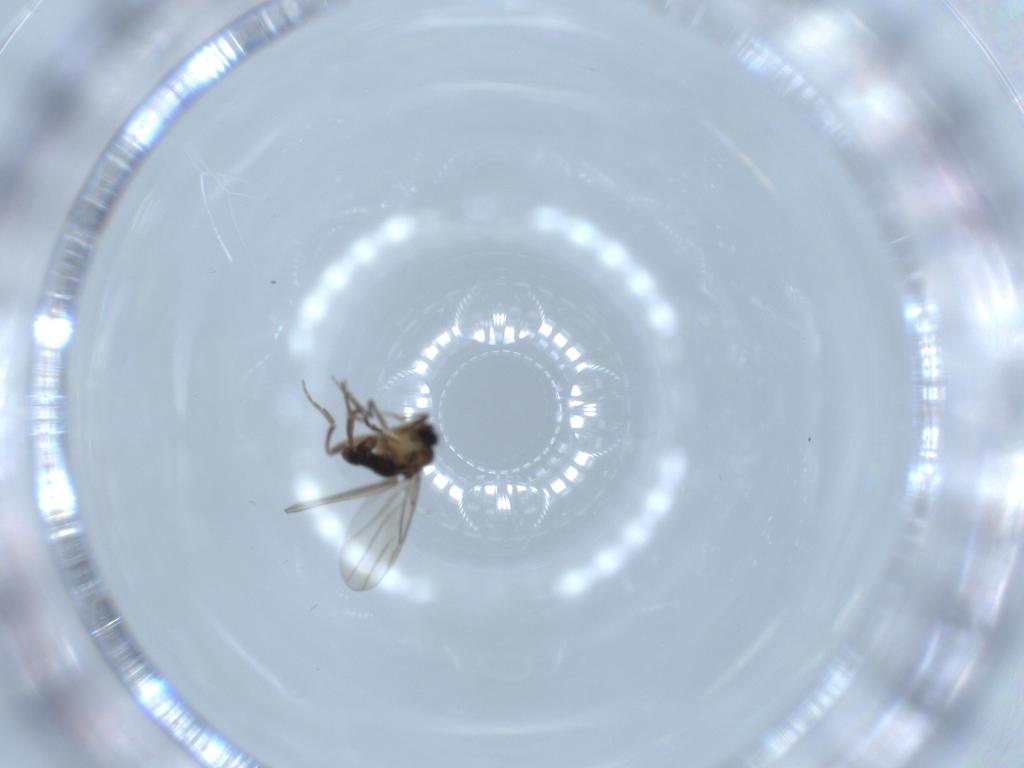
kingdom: Animalia
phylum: Arthropoda
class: Insecta
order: Diptera
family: Phoridae
